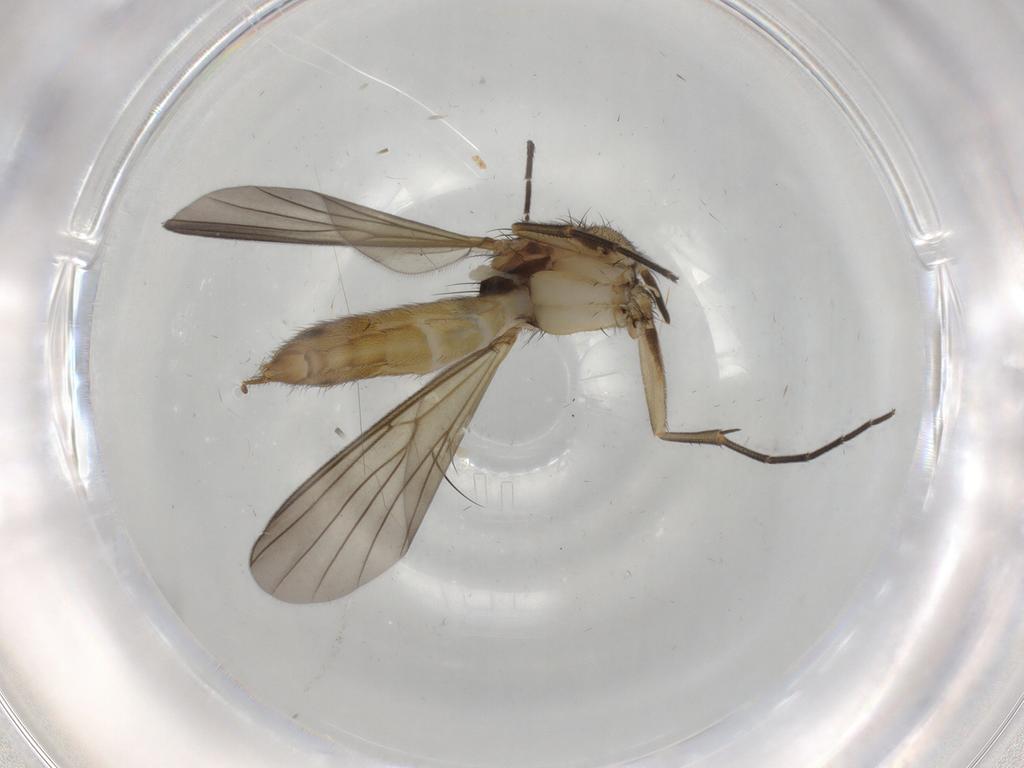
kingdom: Animalia
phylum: Arthropoda
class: Insecta
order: Diptera
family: Mycetophilidae
